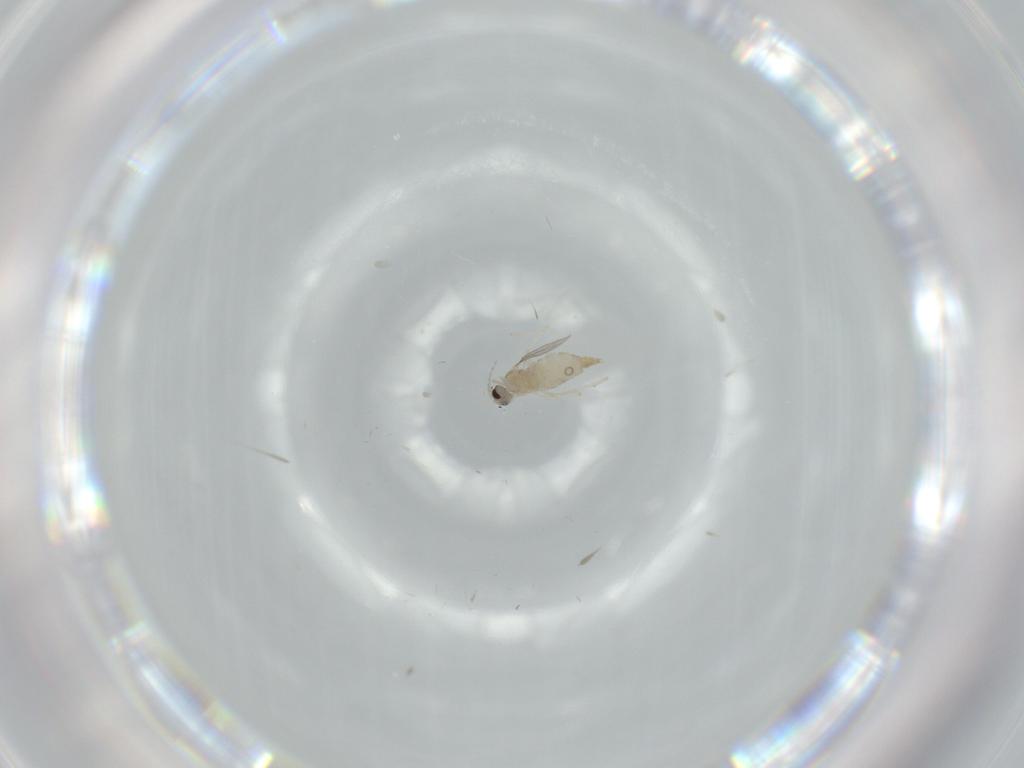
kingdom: Animalia
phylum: Arthropoda
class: Insecta
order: Diptera
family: Cecidomyiidae
